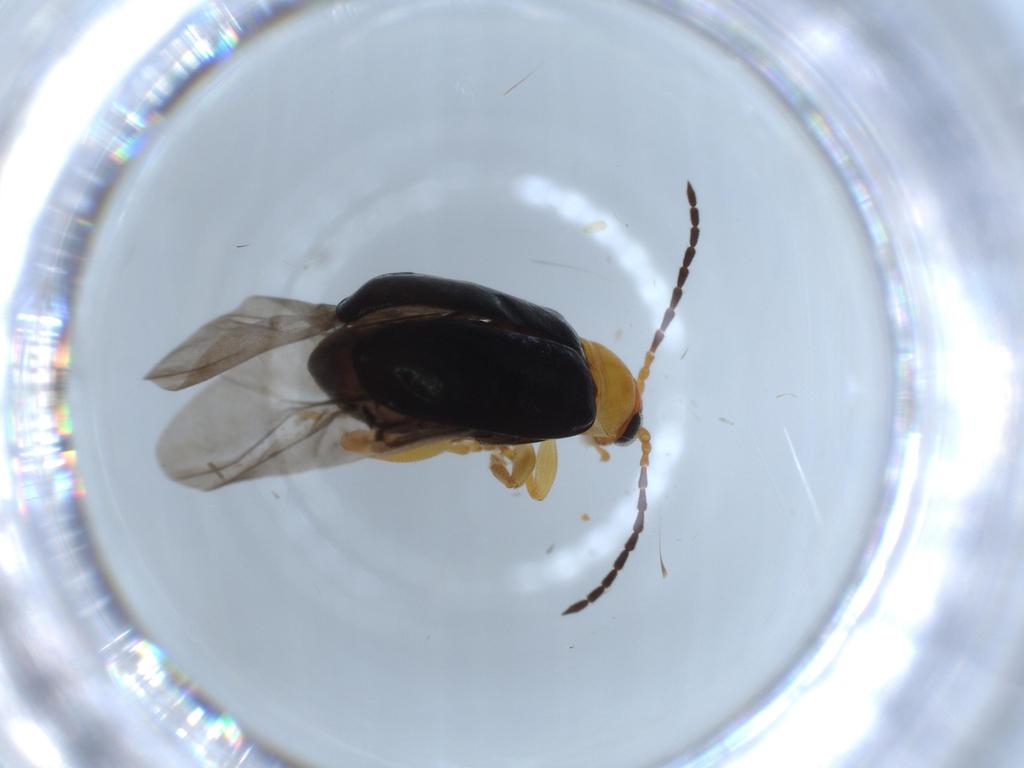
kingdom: Animalia
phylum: Arthropoda
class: Insecta
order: Coleoptera
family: Chrysomelidae
